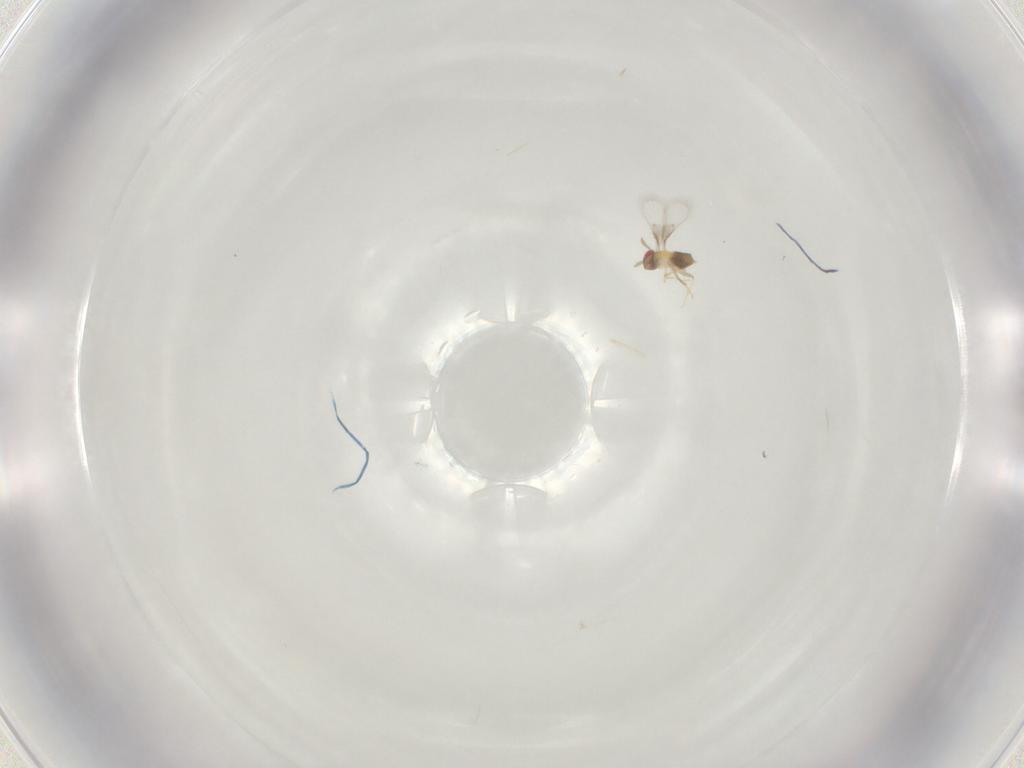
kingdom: Animalia
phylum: Arthropoda
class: Insecta
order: Hymenoptera
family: Trichogrammatidae
